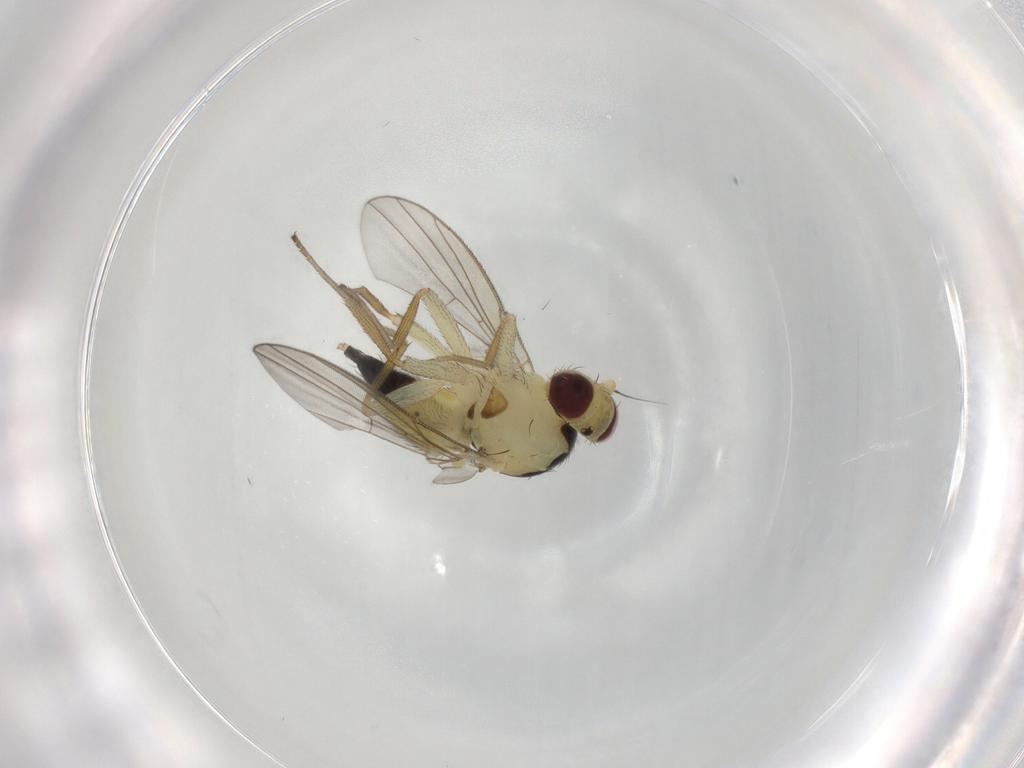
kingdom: Animalia
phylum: Arthropoda
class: Insecta
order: Diptera
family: Agromyzidae
